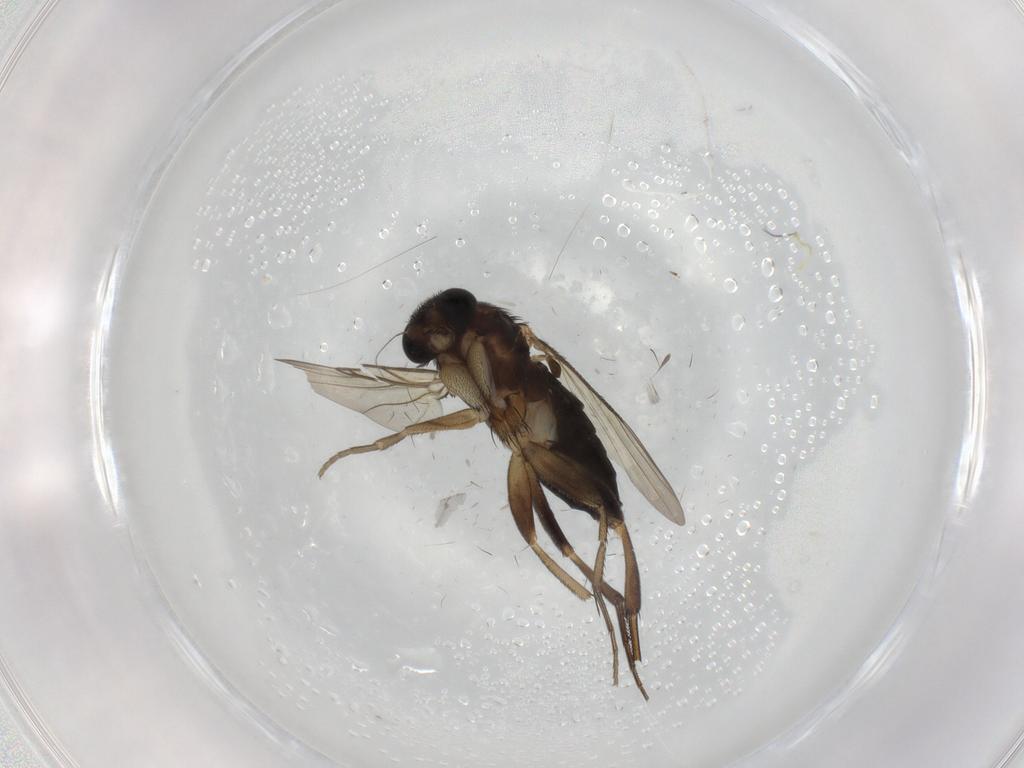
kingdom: Animalia
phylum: Arthropoda
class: Insecta
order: Diptera
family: Phoridae
